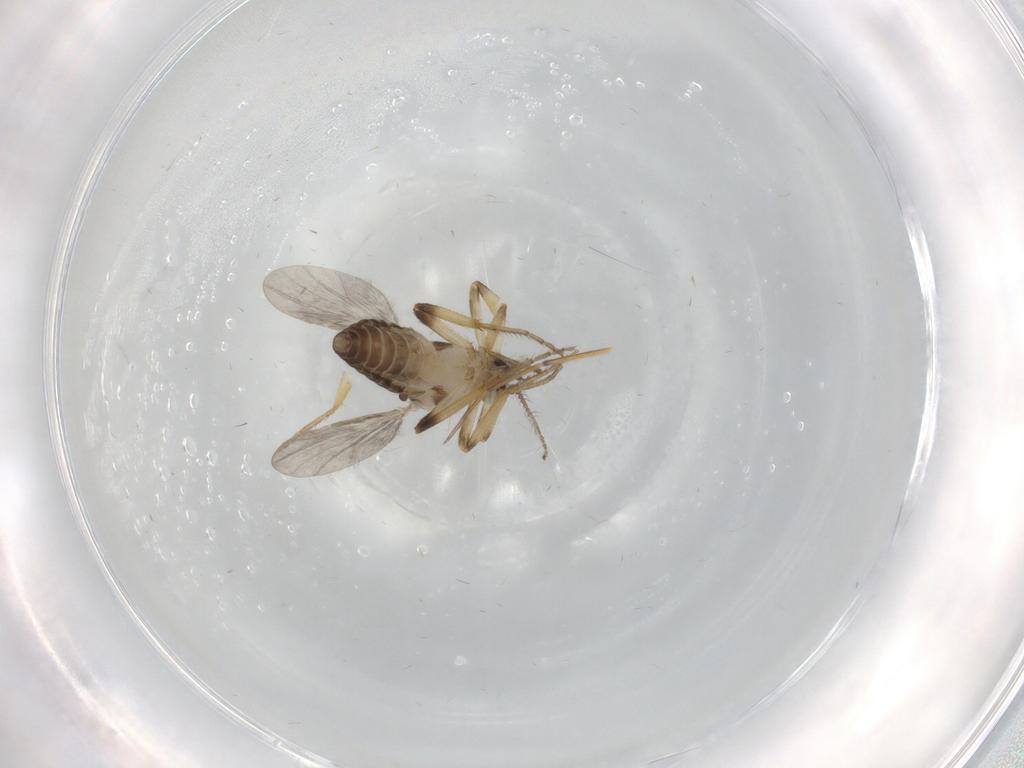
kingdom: Animalia
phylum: Arthropoda
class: Insecta
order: Diptera
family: Ceratopogonidae
